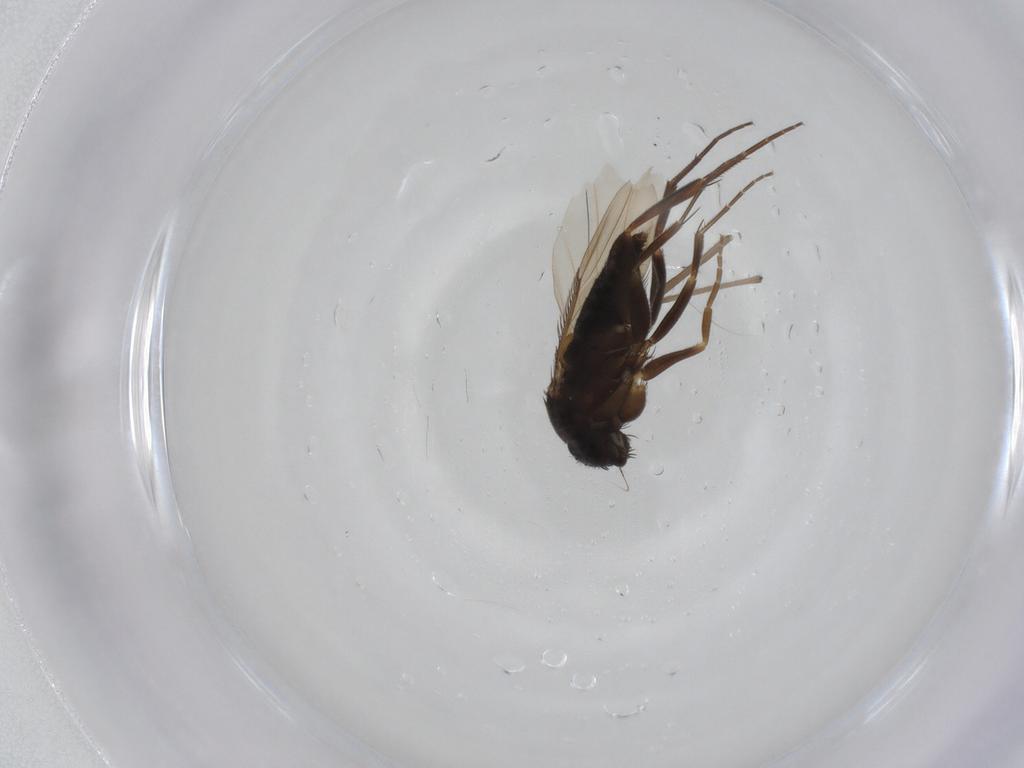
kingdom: Animalia
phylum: Arthropoda
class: Insecta
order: Diptera
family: Phoridae
